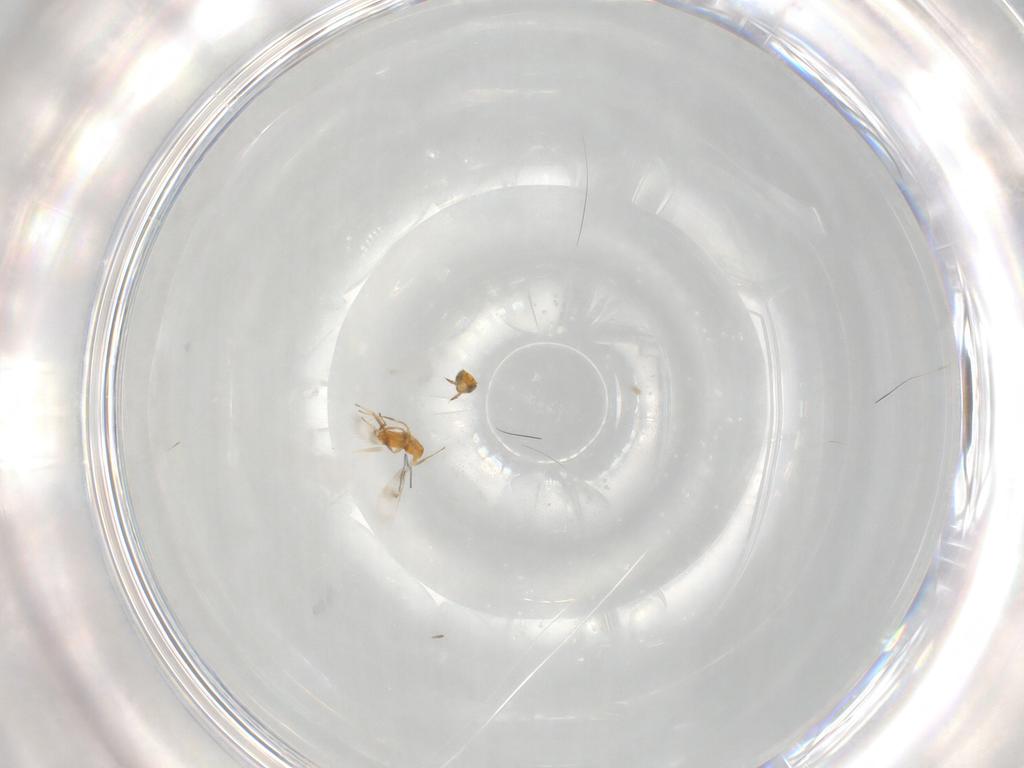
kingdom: Animalia
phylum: Arthropoda
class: Insecta
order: Hymenoptera
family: Aphelinidae
